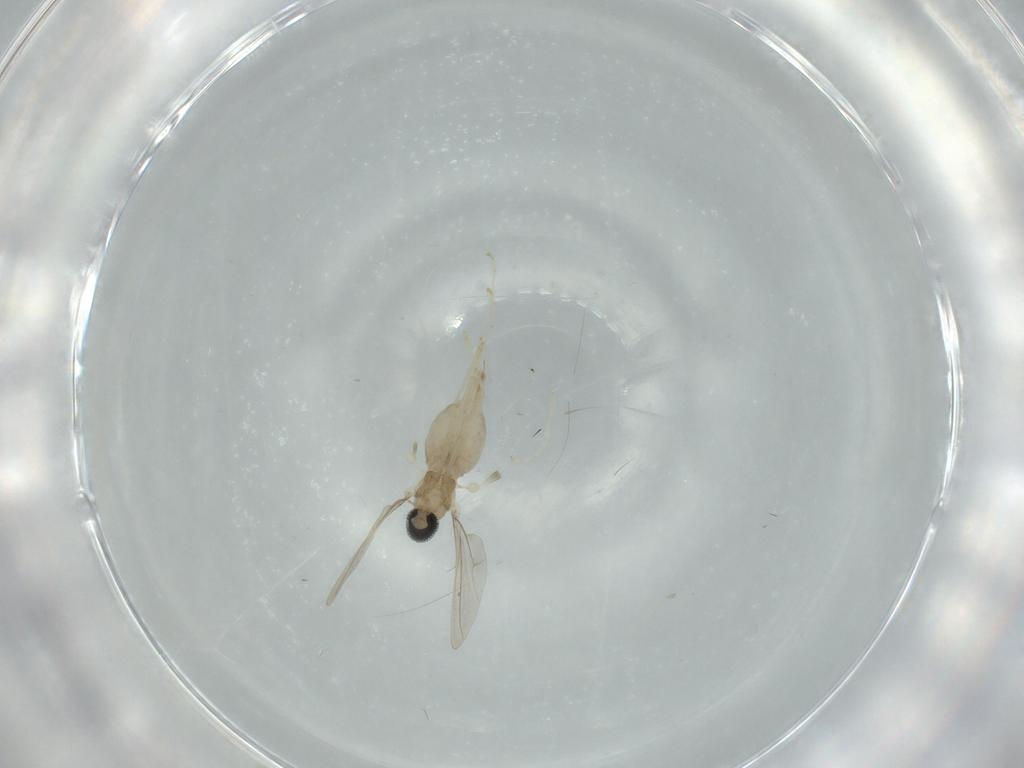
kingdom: Animalia
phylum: Arthropoda
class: Insecta
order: Diptera
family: Cecidomyiidae
